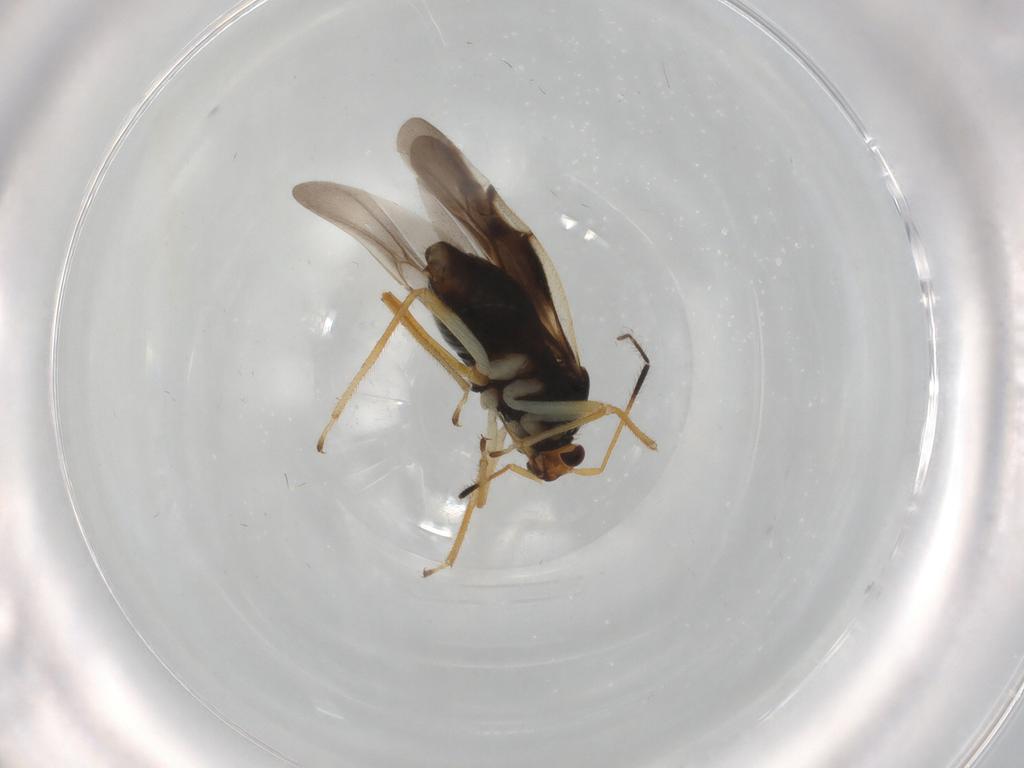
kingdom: Animalia
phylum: Arthropoda
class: Insecta
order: Hemiptera
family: Miridae
